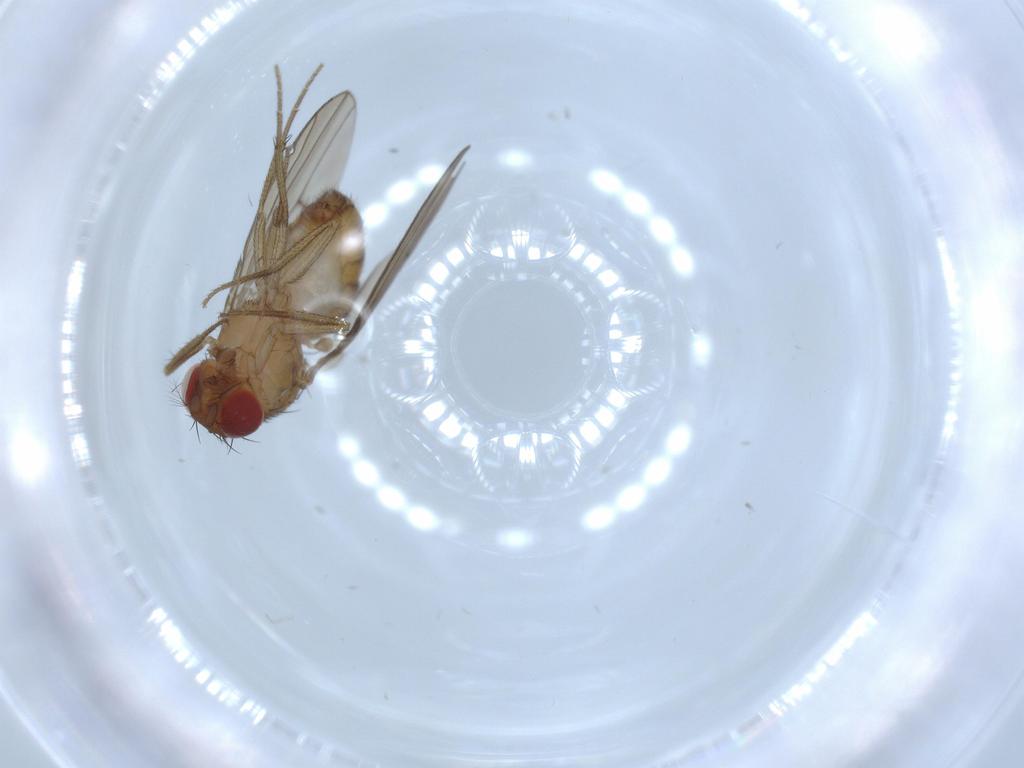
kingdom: Animalia
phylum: Arthropoda
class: Insecta
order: Diptera
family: Drosophilidae
